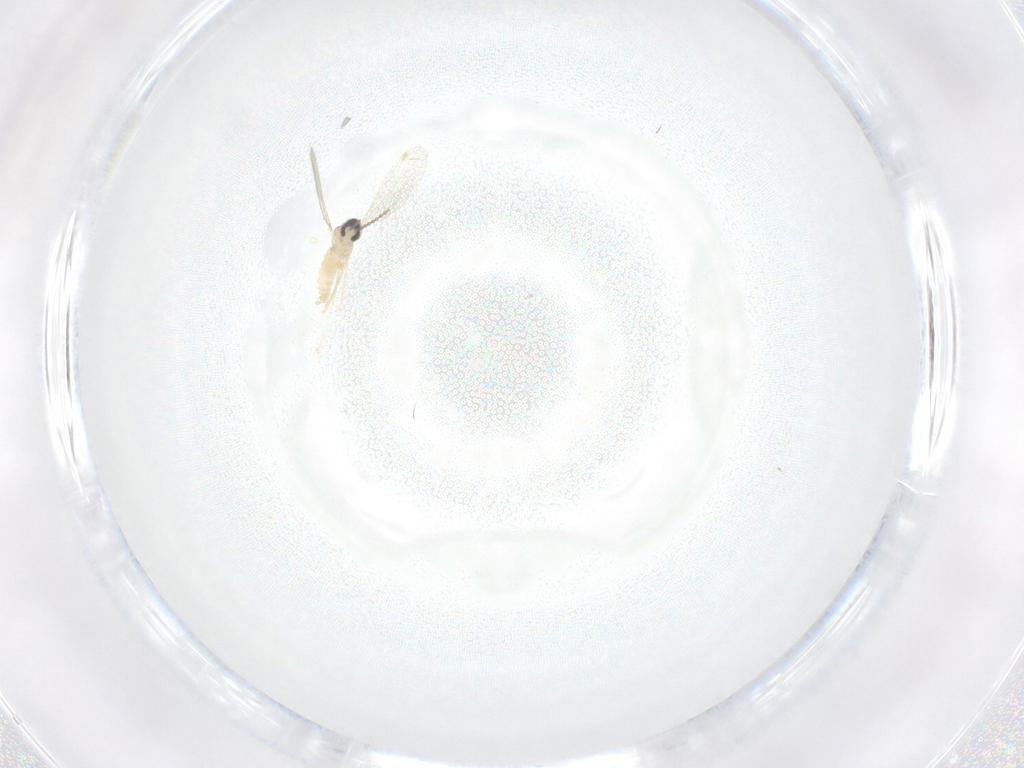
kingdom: Animalia
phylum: Arthropoda
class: Insecta
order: Diptera
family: Cecidomyiidae
